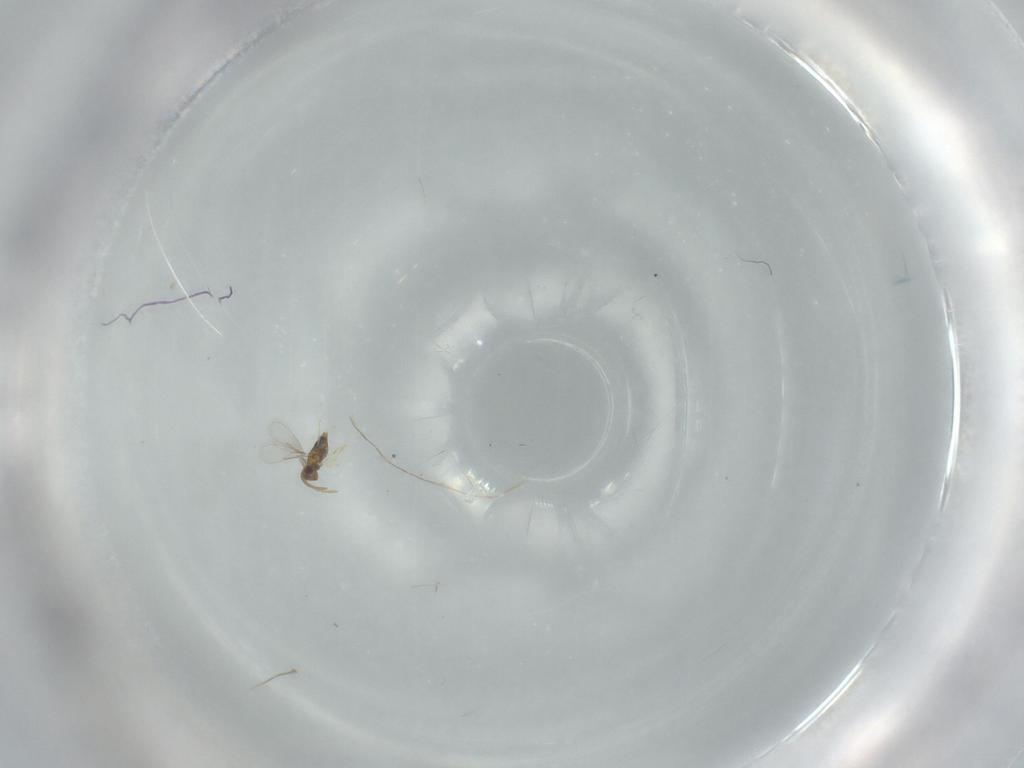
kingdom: Animalia
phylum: Arthropoda
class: Insecta
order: Hymenoptera
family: Aphelinidae
